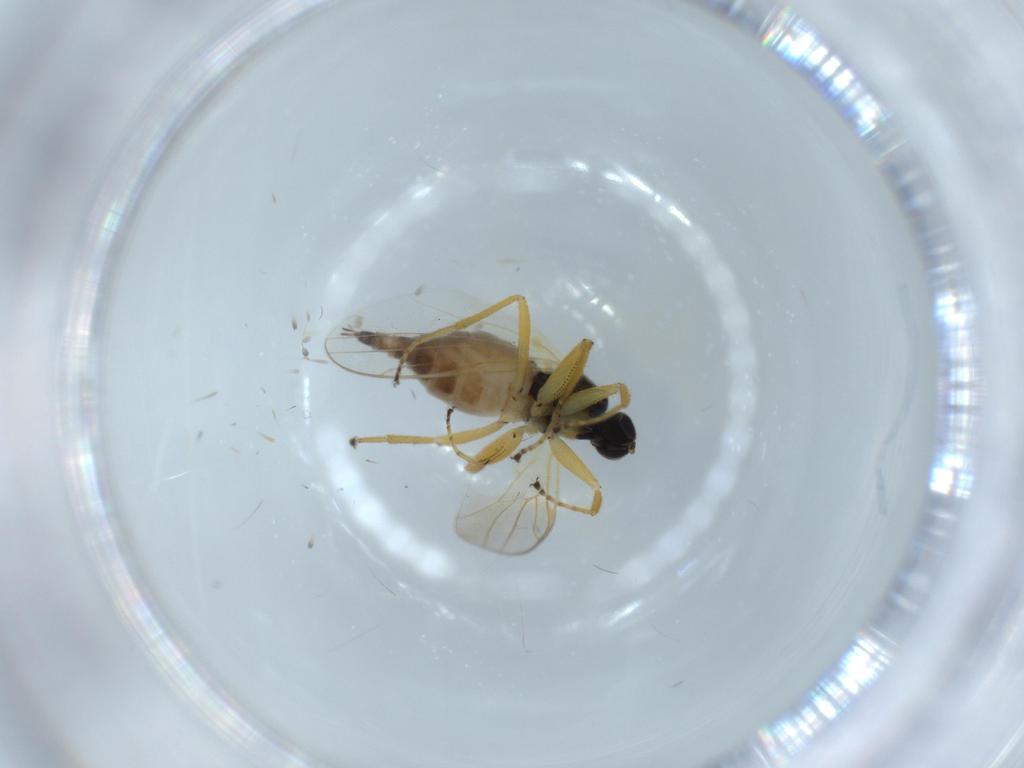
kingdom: Animalia
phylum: Arthropoda
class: Insecta
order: Diptera
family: Hybotidae
